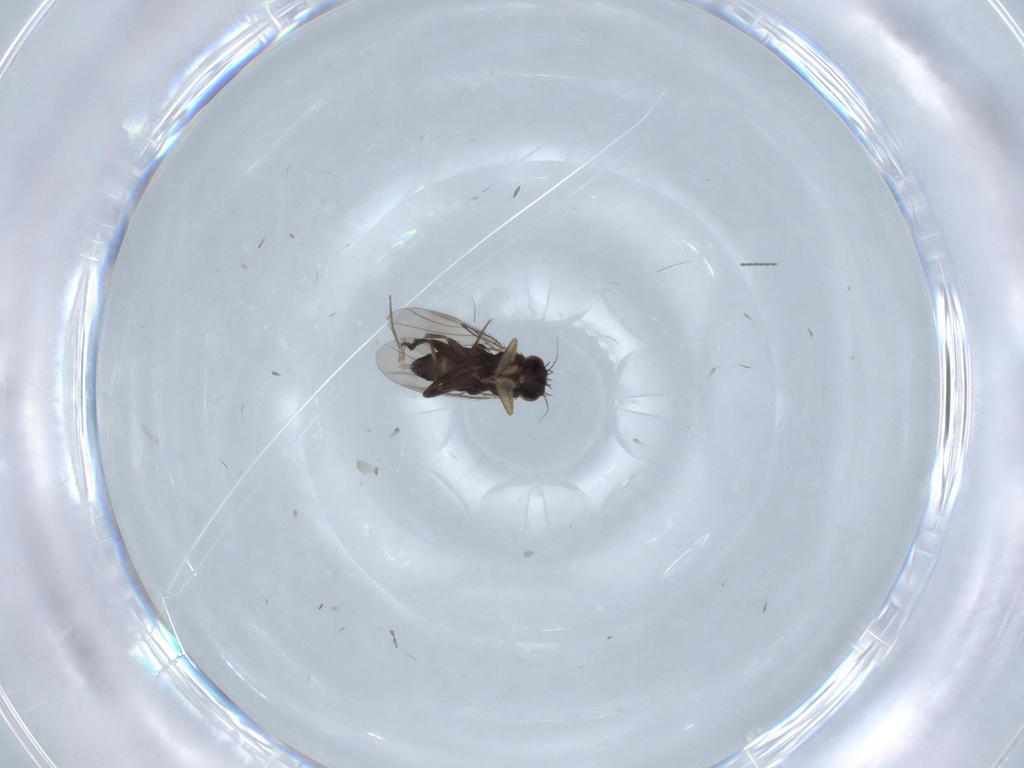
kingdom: Animalia
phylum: Arthropoda
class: Insecta
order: Diptera
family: Phoridae
